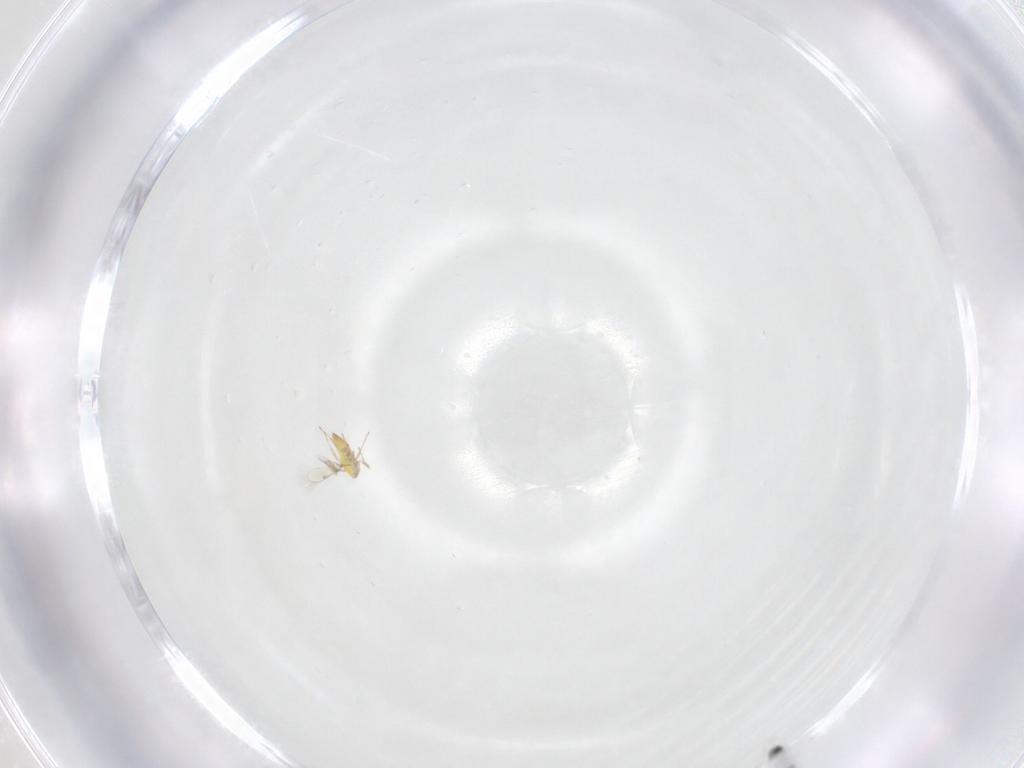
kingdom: Animalia
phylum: Arthropoda
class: Insecta
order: Hymenoptera
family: Trichogrammatidae
